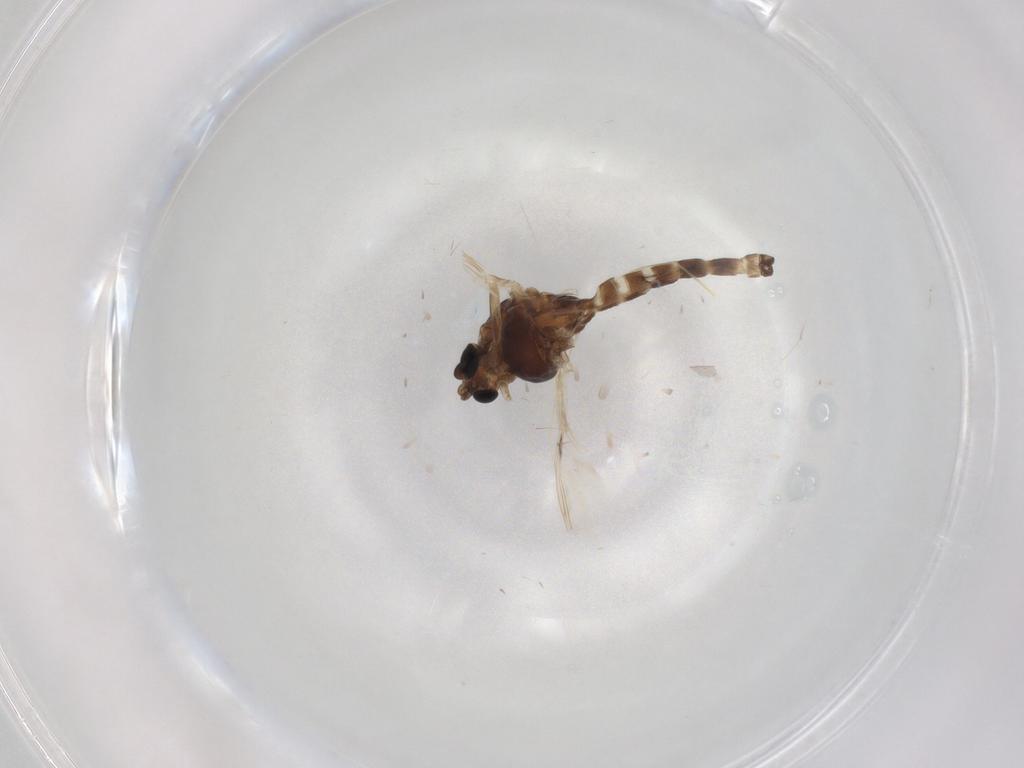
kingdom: Animalia
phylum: Arthropoda
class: Insecta
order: Diptera
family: Chironomidae
